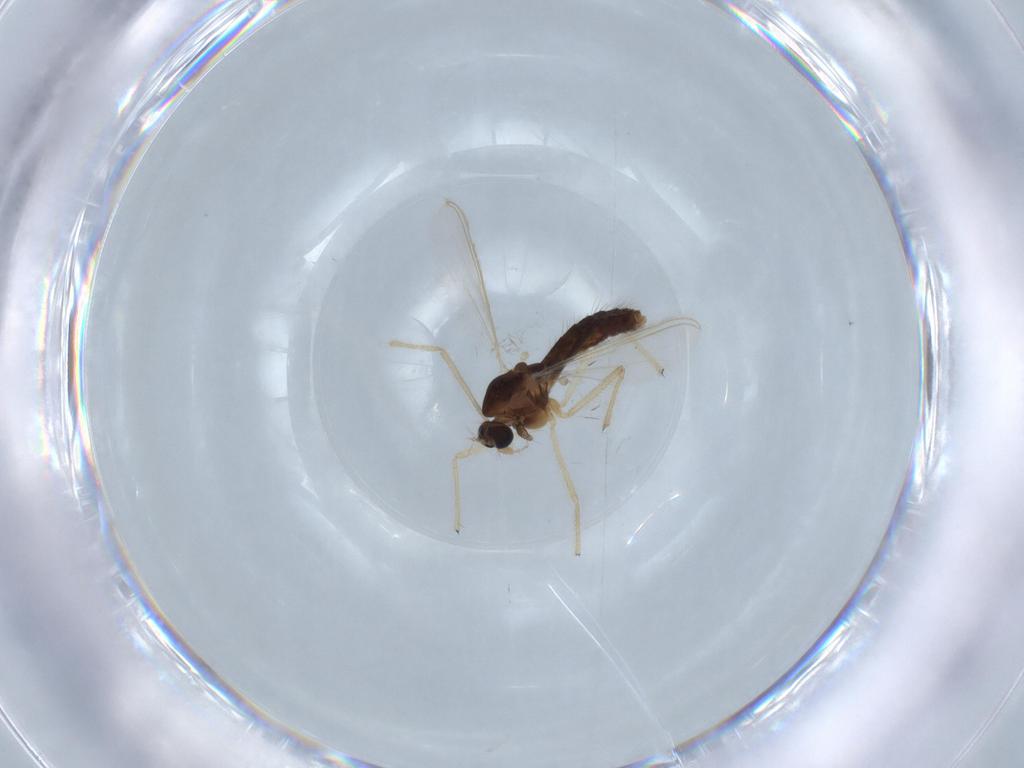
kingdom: Animalia
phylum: Arthropoda
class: Insecta
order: Diptera
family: Chironomidae
